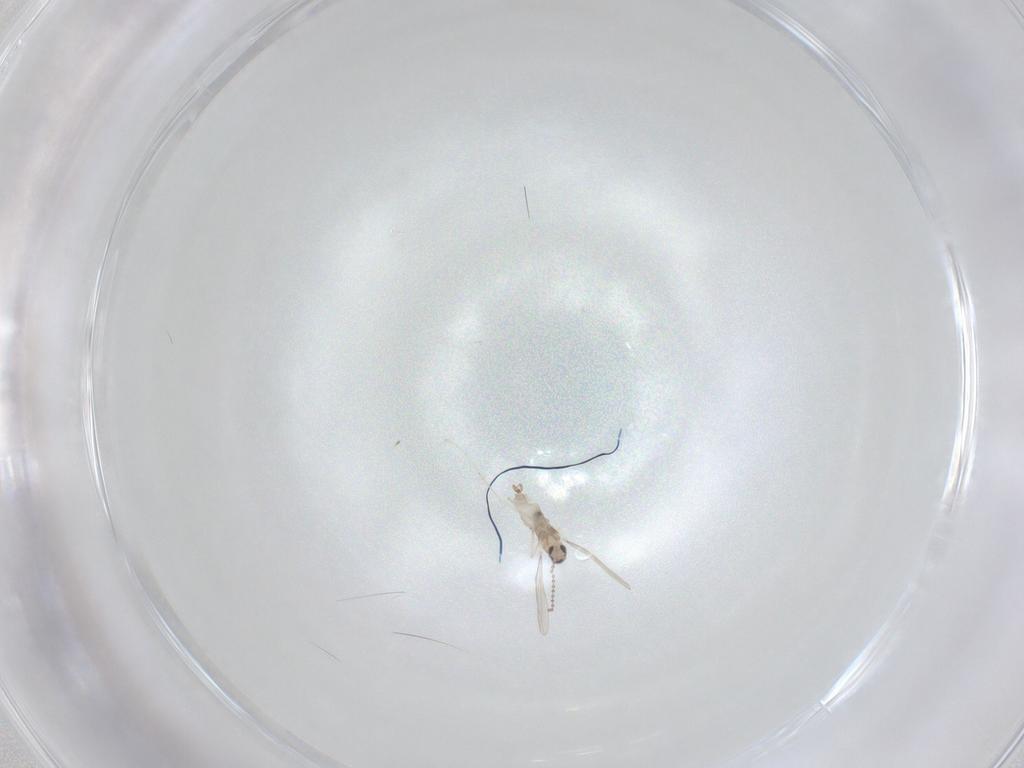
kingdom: Animalia
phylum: Arthropoda
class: Insecta
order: Diptera
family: Cecidomyiidae
